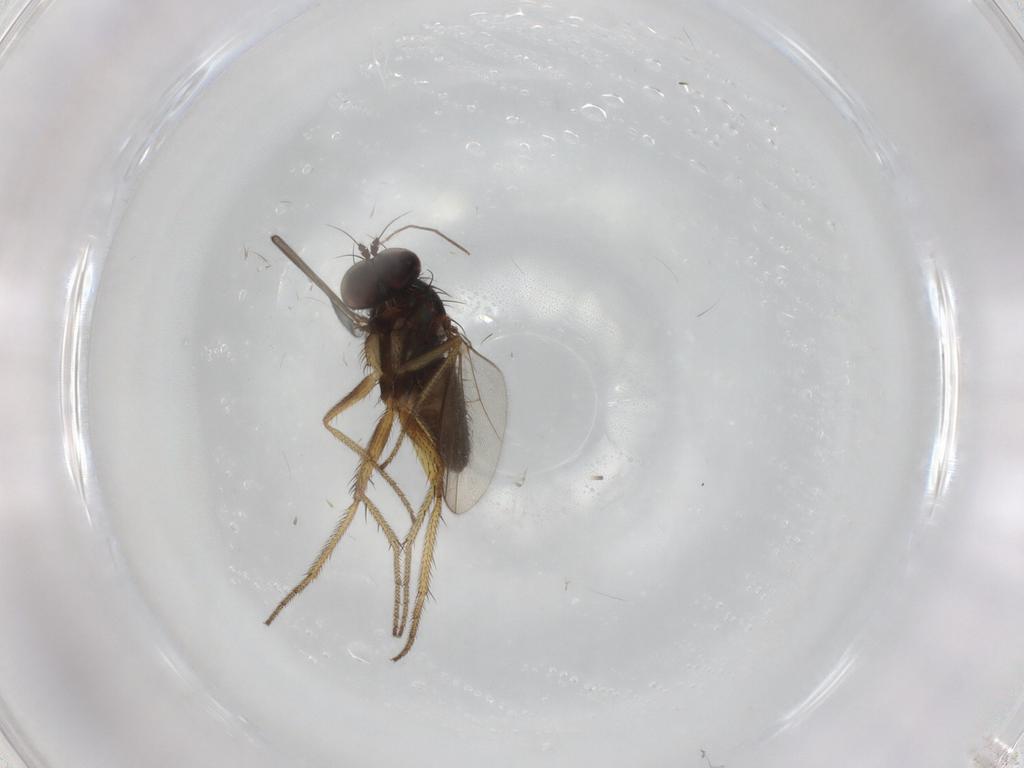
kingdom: Animalia
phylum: Arthropoda
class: Insecta
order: Diptera
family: Chironomidae
